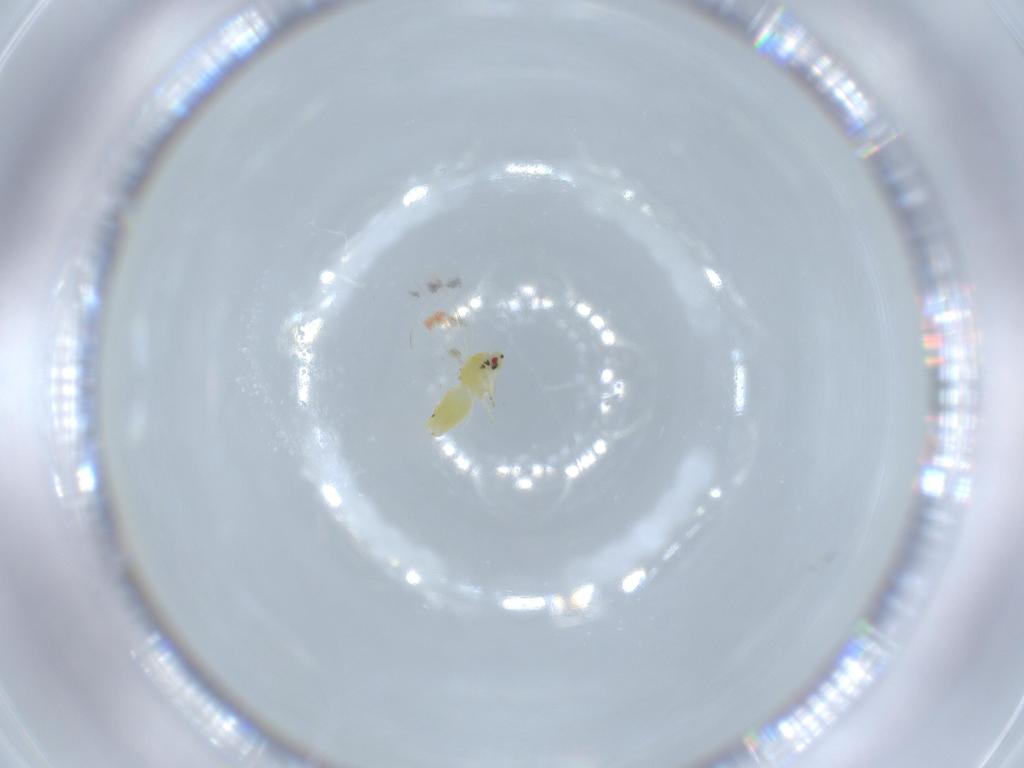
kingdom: Animalia
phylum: Arthropoda
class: Insecta
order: Hemiptera
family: Aleyrodidae
